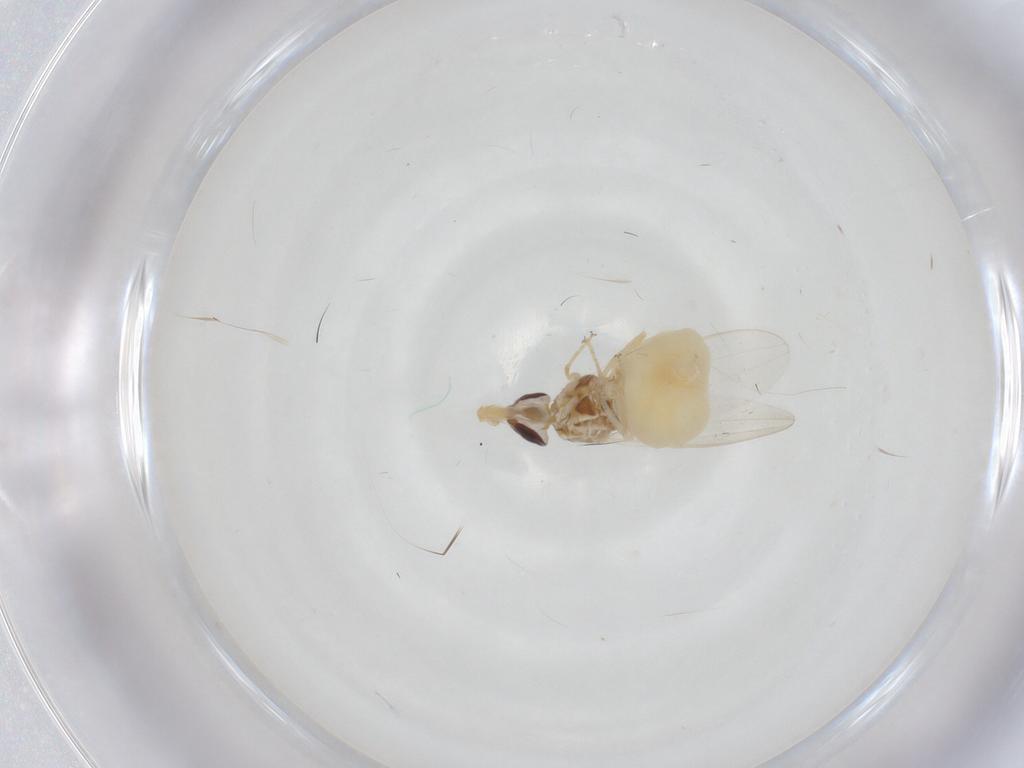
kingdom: Animalia
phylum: Arthropoda
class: Insecta
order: Diptera
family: Chloropidae
